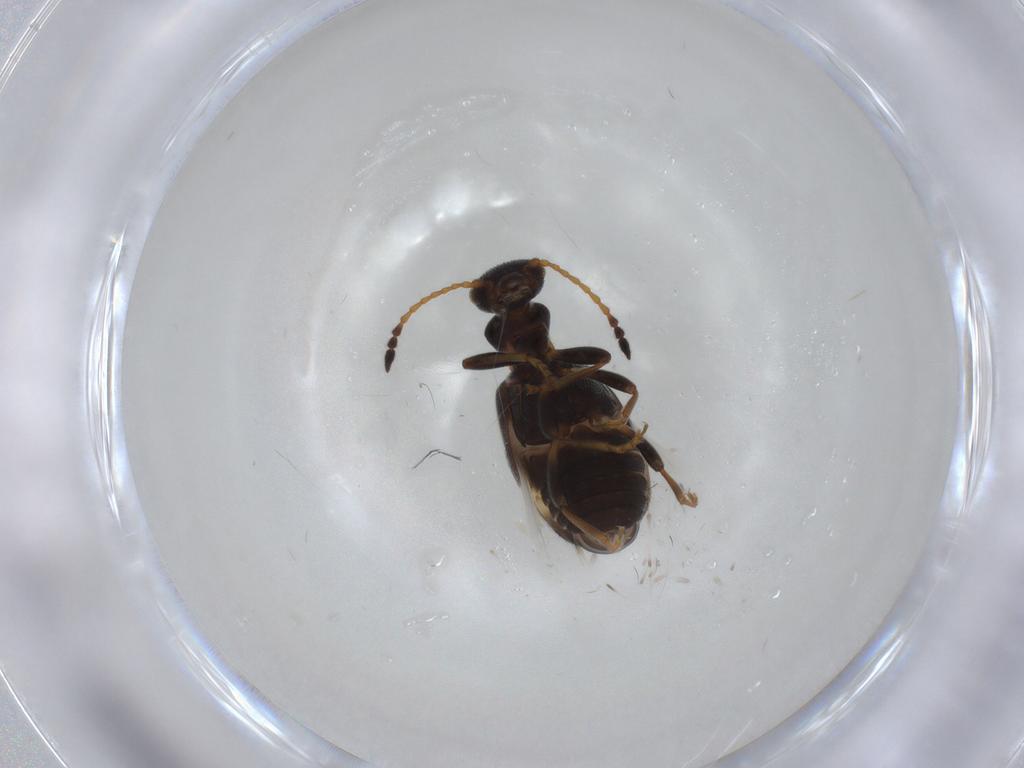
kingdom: Animalia
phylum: Arthropoda
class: Insecta
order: Coleoptera
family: Anthicidae
